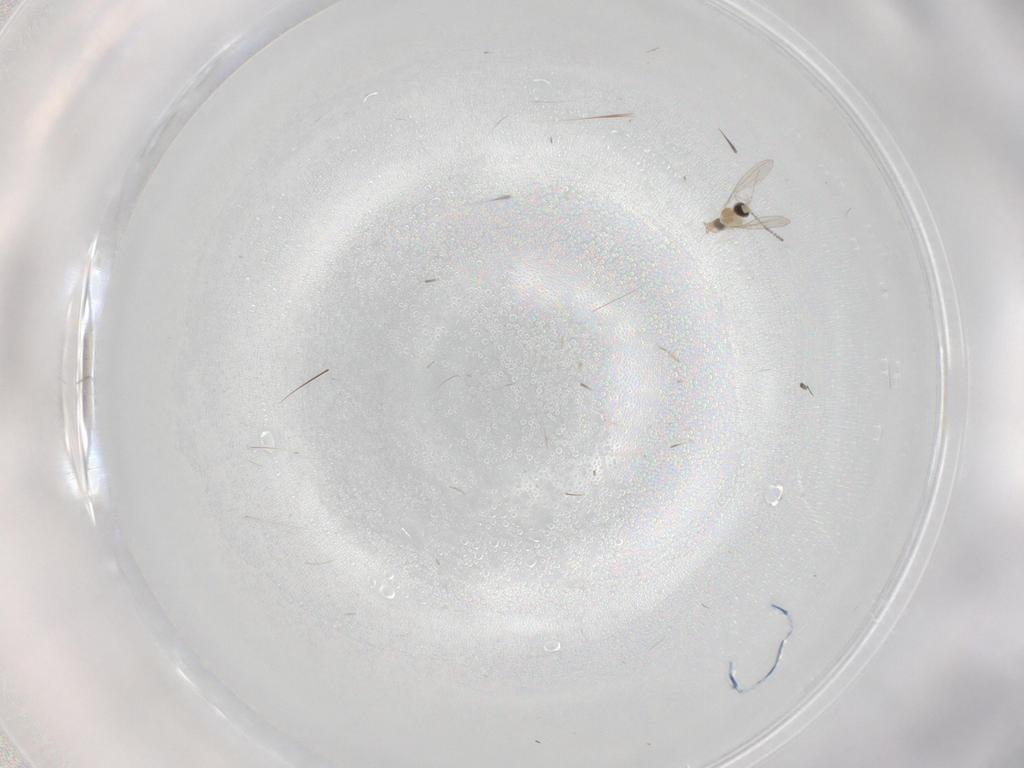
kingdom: Animalia
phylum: Arthropoda
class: Insecta
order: Diptera
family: Cecidomyiidae
